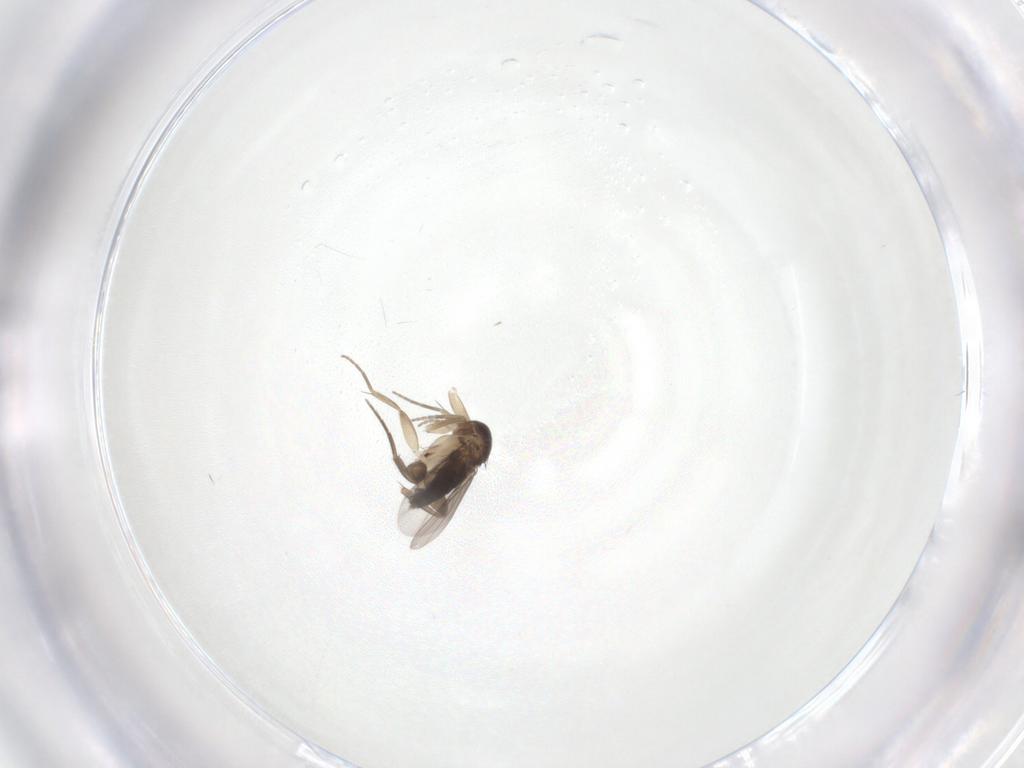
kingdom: Animalia
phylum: Arthropoda
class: Insecta
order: Diptera
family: Phoridae
